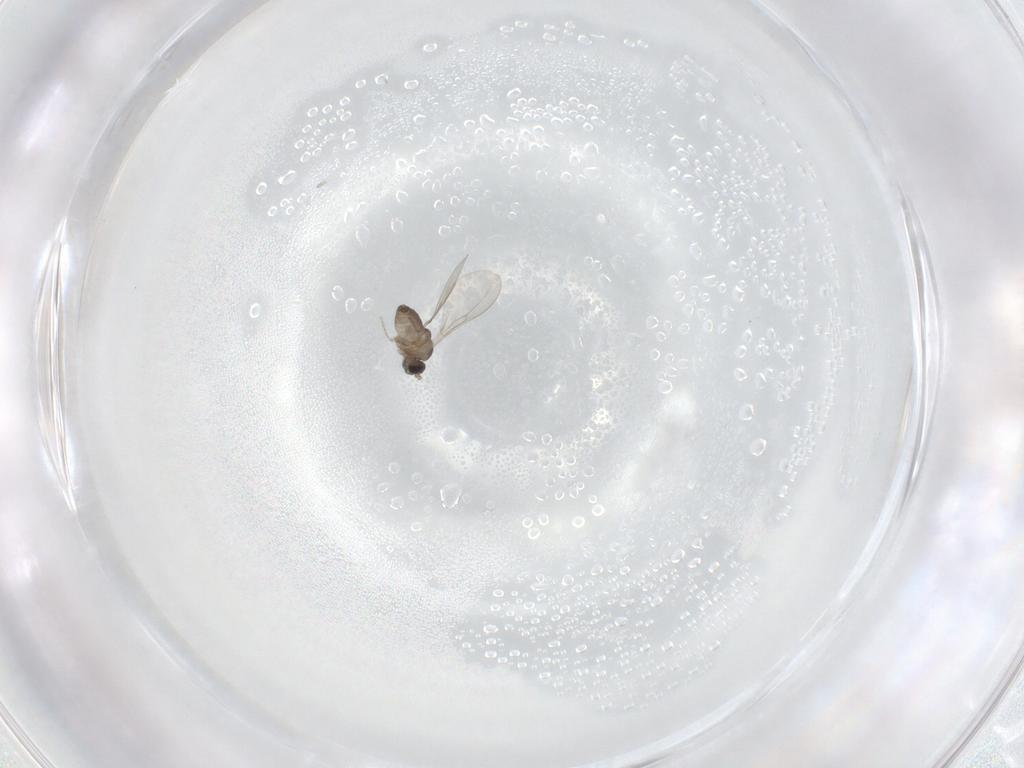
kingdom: Animalia
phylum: Arthropoda
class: Insecta
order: Diptera
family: Cecidomyiidae
